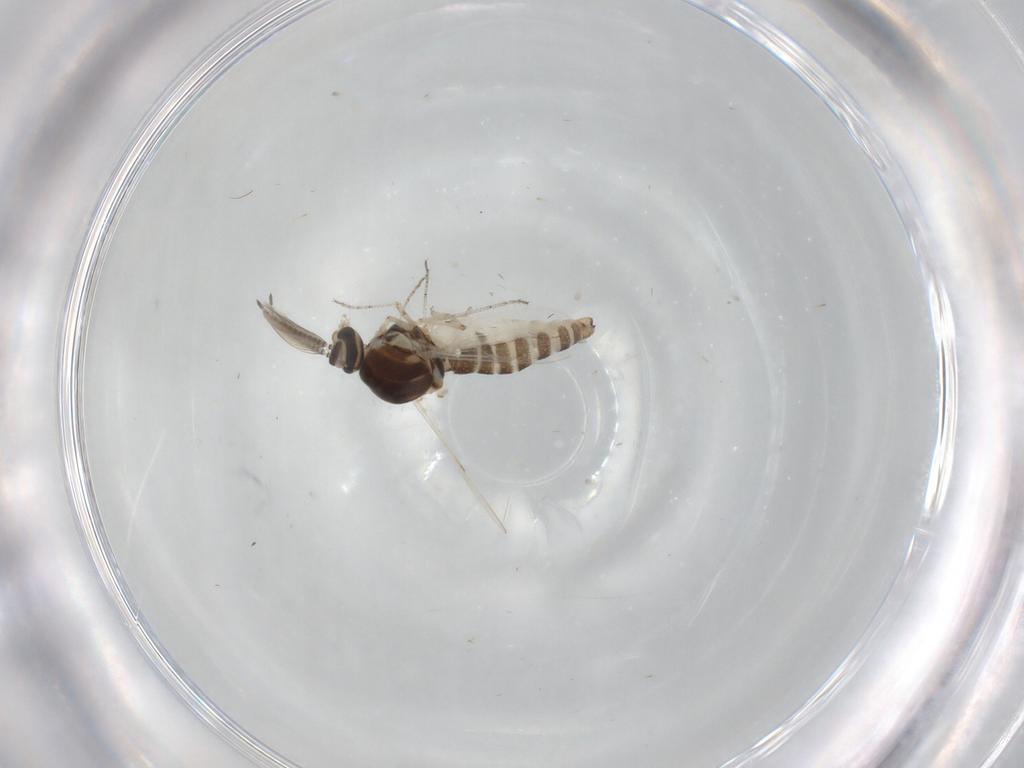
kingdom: Animalia
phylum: Arthropoda
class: Insecta
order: Diptera
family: Ceratopogonidae
